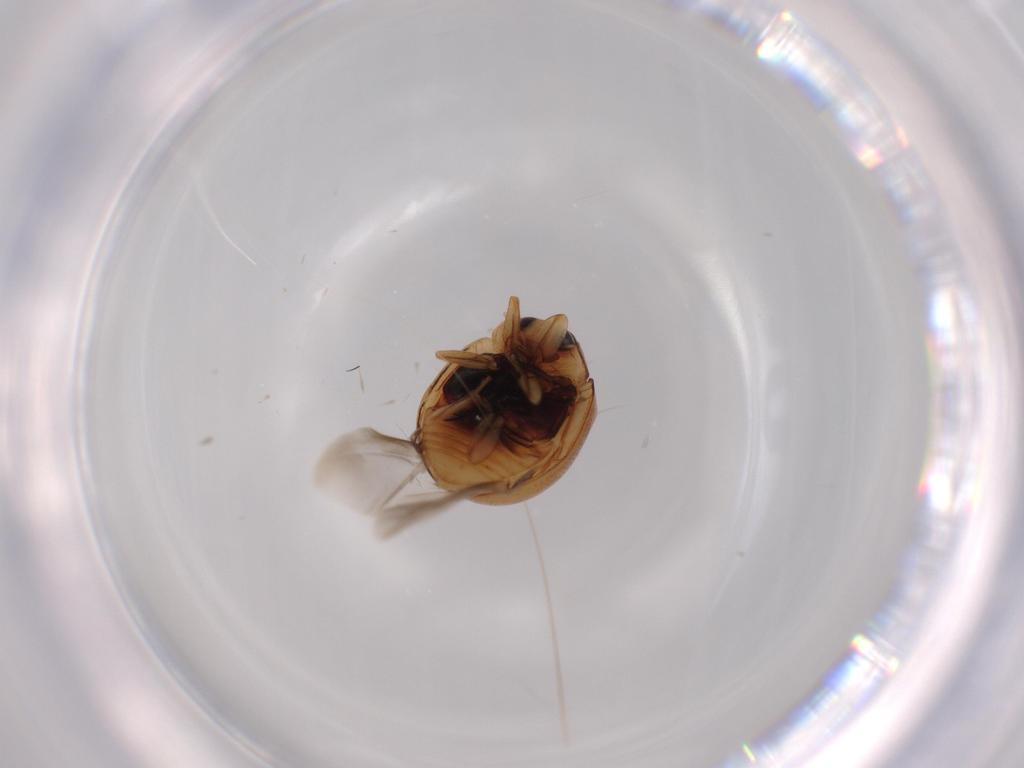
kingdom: Animalia
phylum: Arthropoda
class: Insecta
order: Coleoptera
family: Coccinellidae
